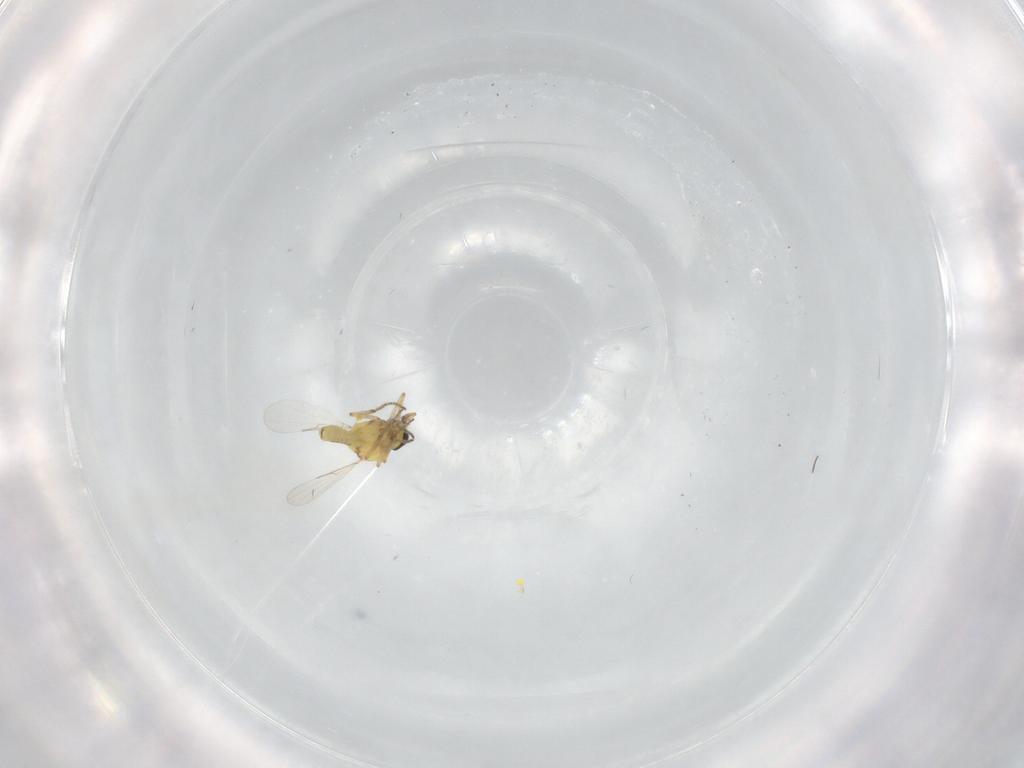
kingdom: Animalia
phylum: Arthropoda
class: Insecta
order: Diptera
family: Ceratopogonidae
